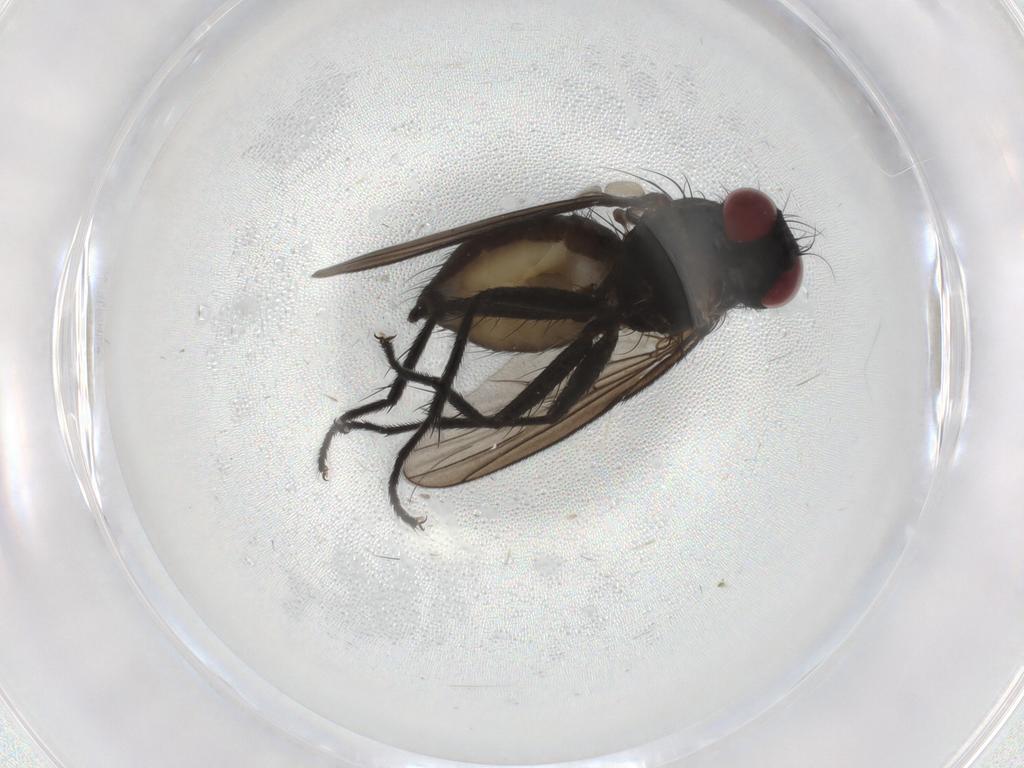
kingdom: Animalia
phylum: Arthropoda
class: Insecta
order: Diptera
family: Muscidae
